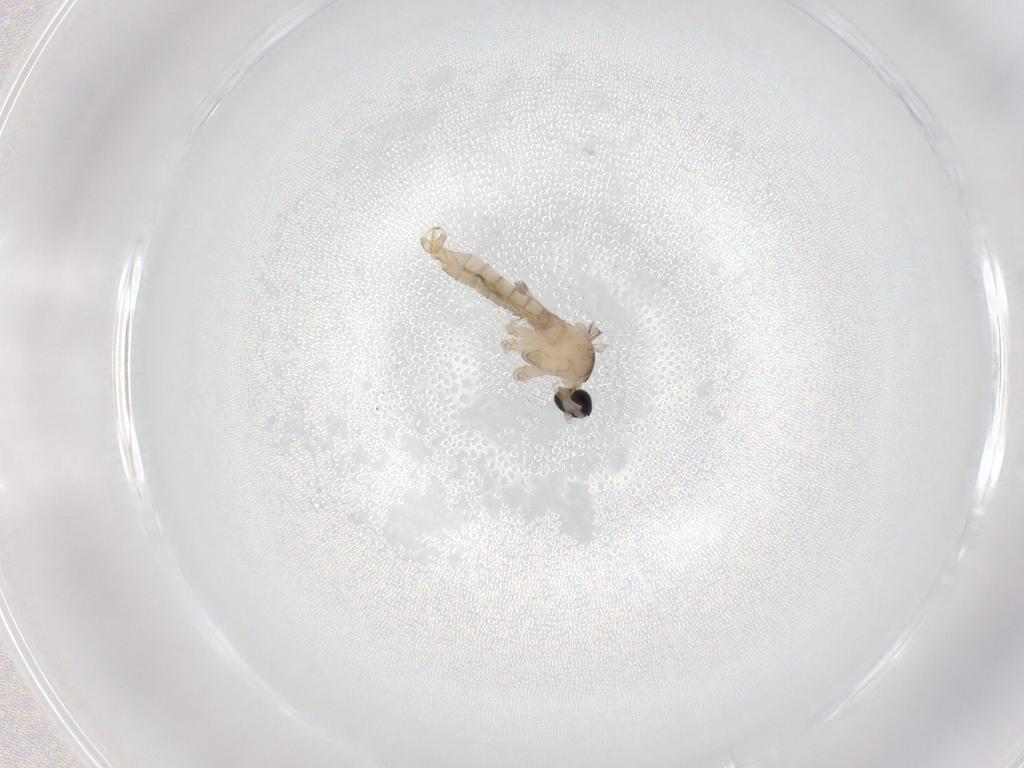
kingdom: Animalia
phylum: Arthropoda
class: Insecta
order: Diptera
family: Cecidomyiidae
